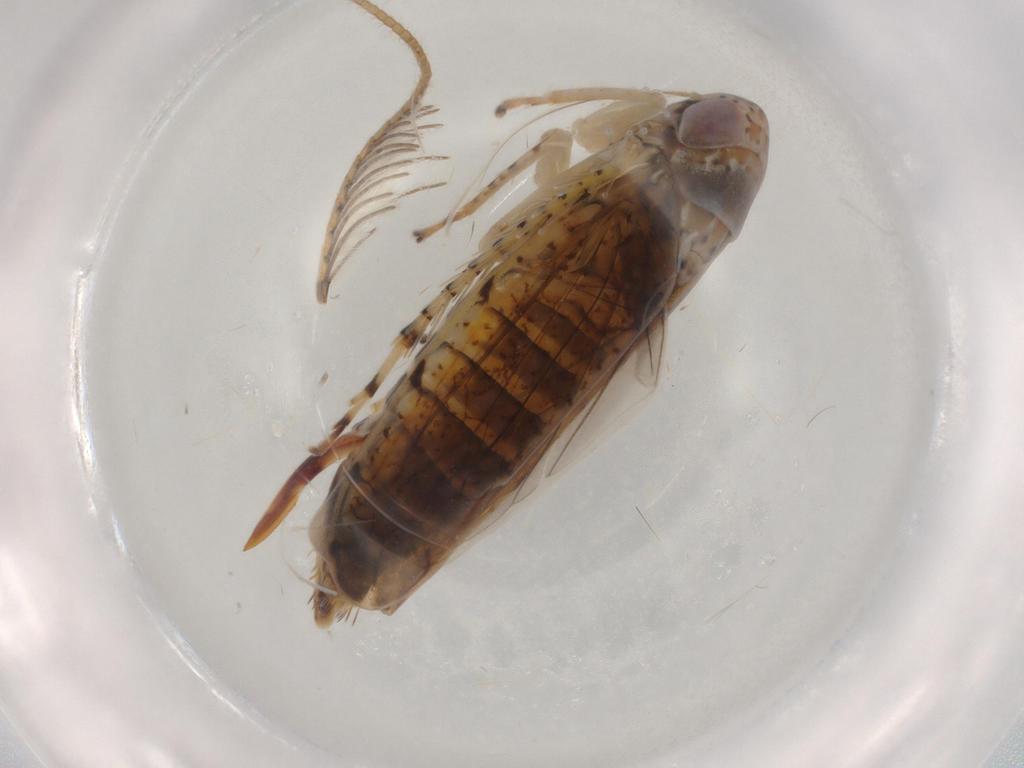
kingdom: Animalia
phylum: Arthropoda
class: Insecta
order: Hemiptera
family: Cicadellidae
